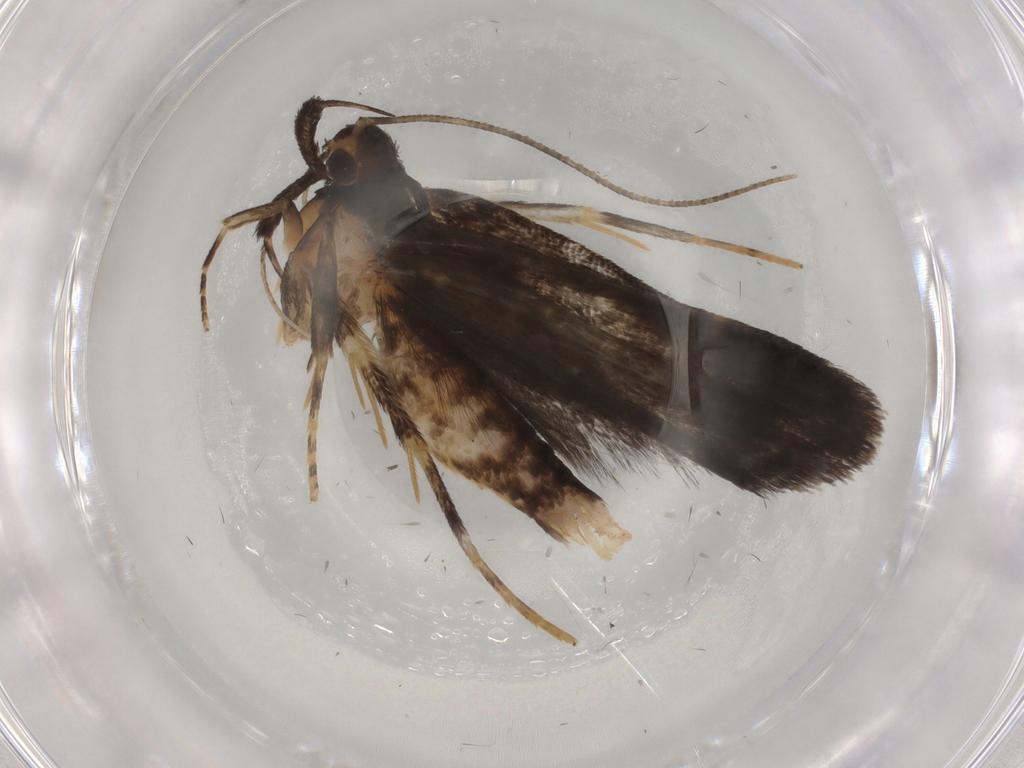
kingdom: Animalia
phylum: Arthropoda
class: Insecta
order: Lepidoptera
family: Gelechiidae
